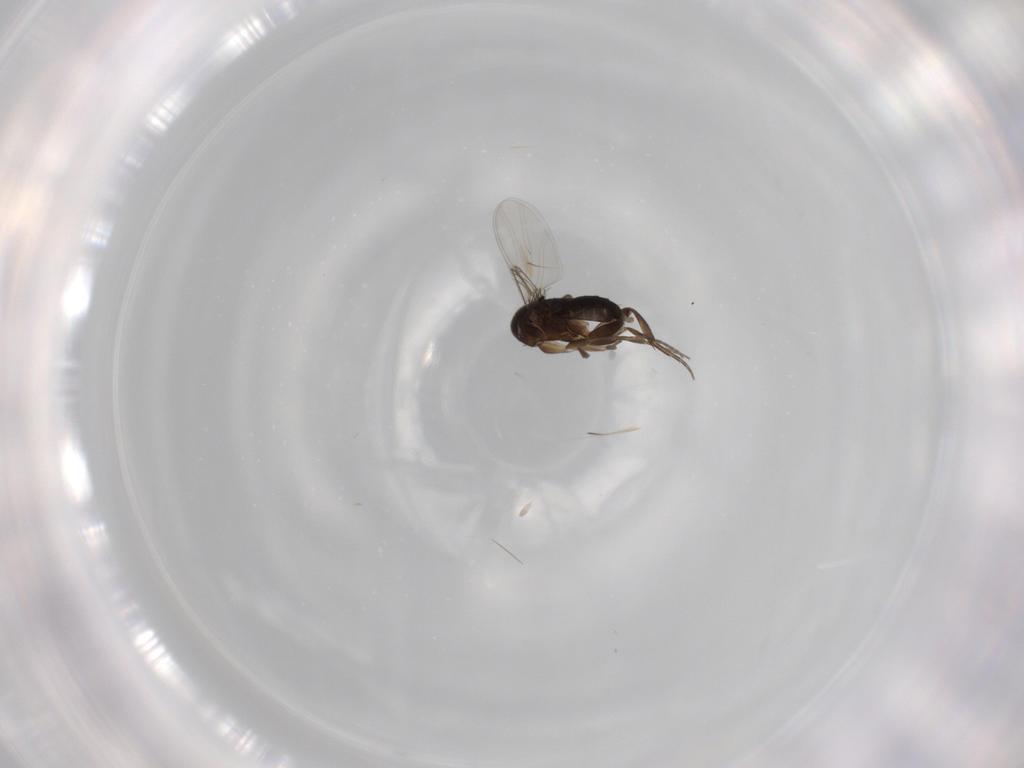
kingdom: Animalia
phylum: Arthropoda
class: Insecta
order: Diptera
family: Phoridae
